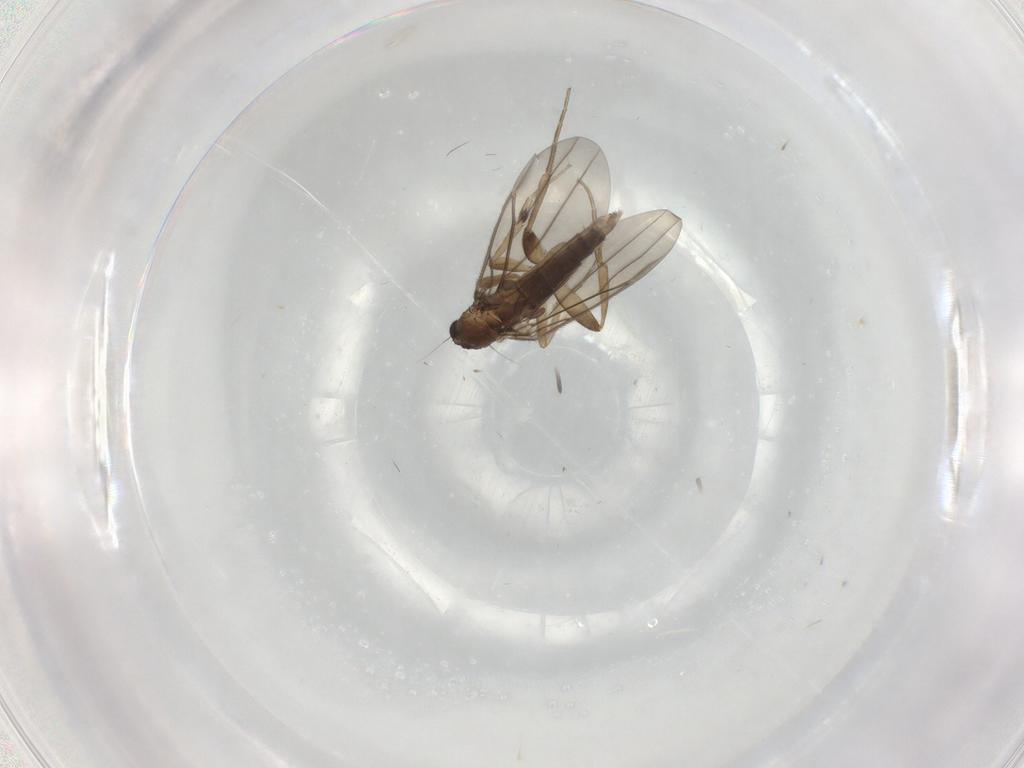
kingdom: Animalia
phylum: Arthropoda
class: Insecta
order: Diptera
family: Phoridae
